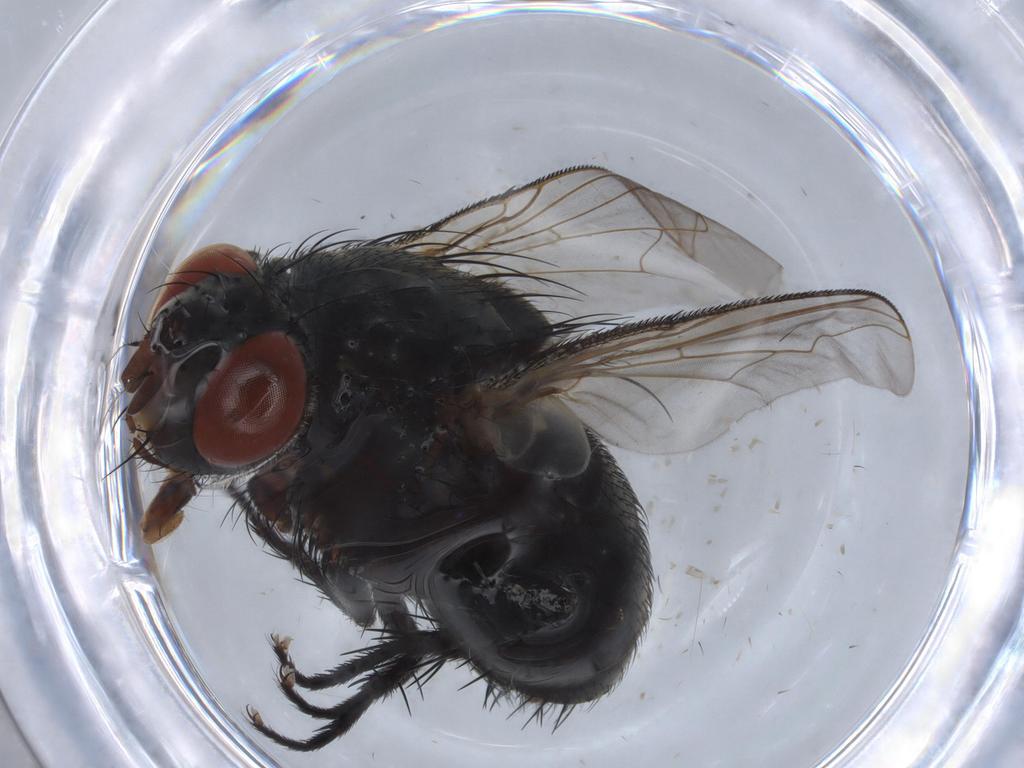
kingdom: Animalia
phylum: Arthropoda
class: Insecta
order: Diptera
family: Sarcophagidae
